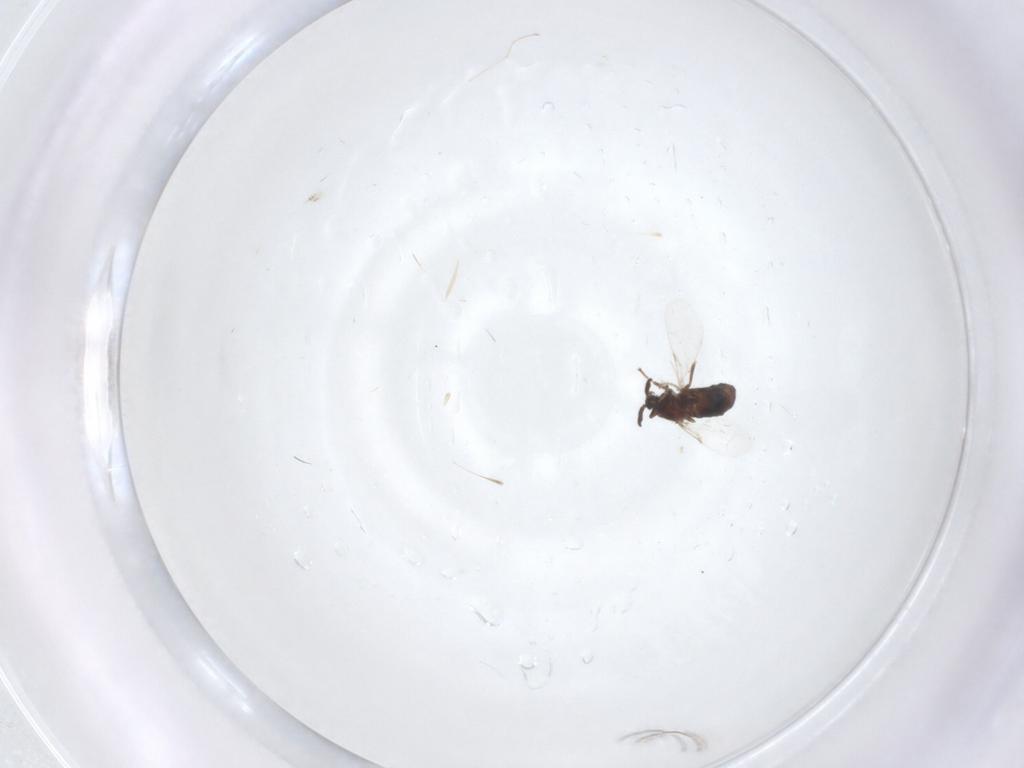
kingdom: Animalia
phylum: Arthropoda
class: Insecta
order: Diptera
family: Scatopsidae
